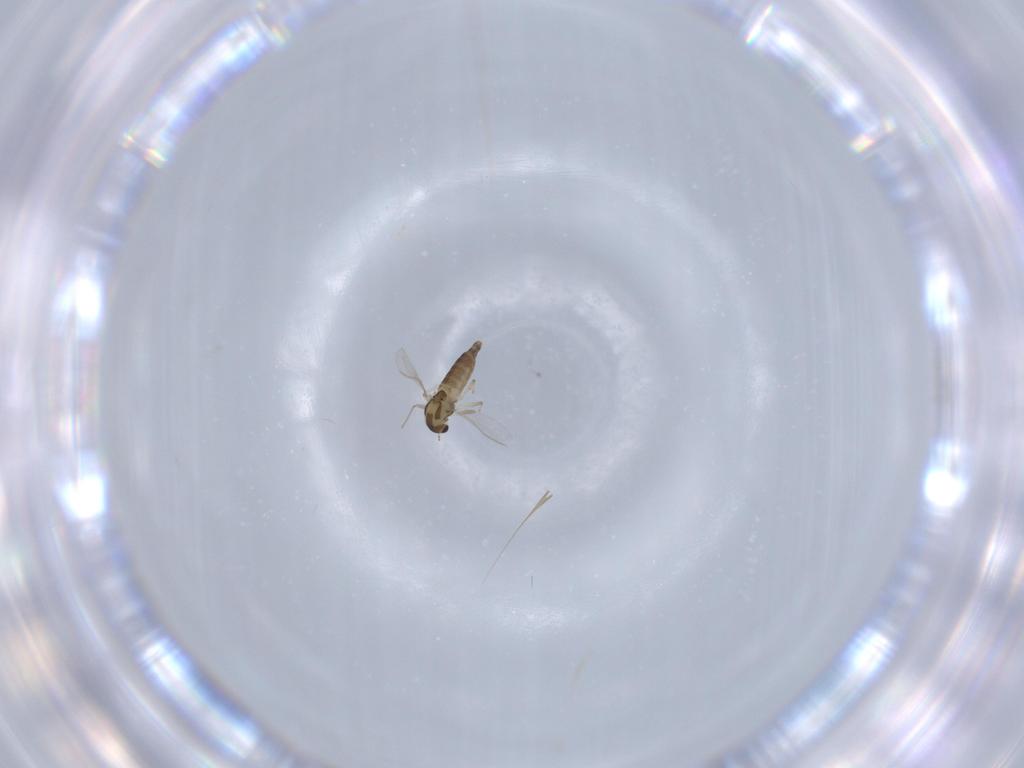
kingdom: Animalia
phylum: Arthropoda
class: Insecta
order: Diptera
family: Chironomidae
